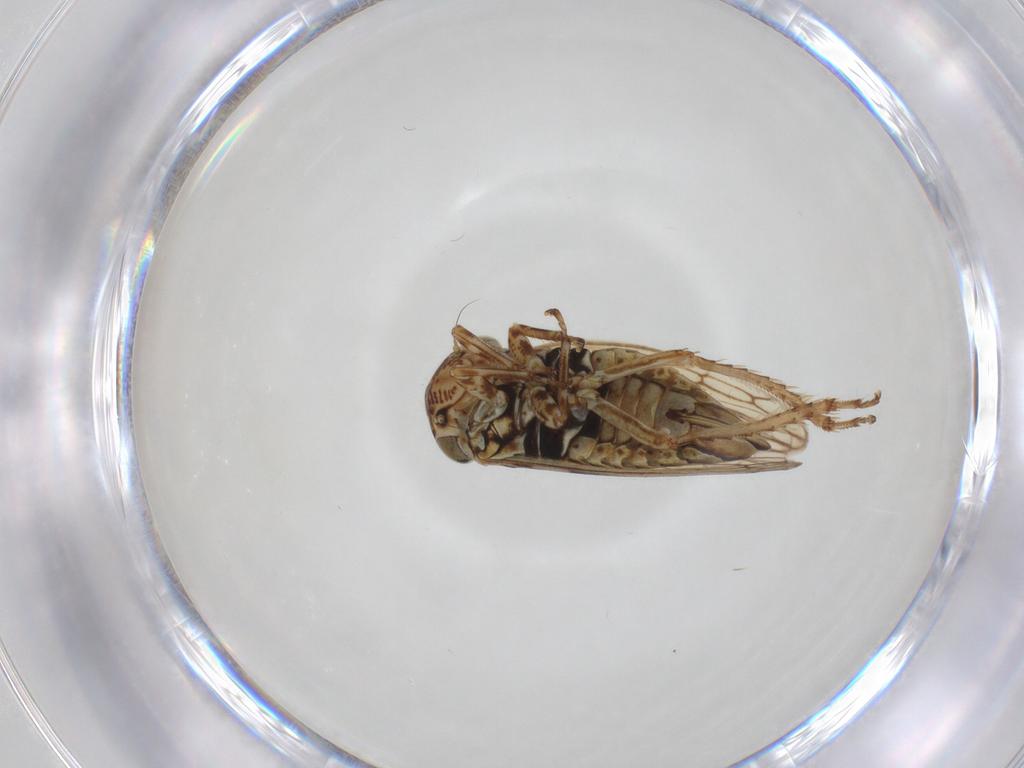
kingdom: Animalia
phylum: Arthropoda
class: Insecta
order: Hemiptera
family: Cicadellidae
